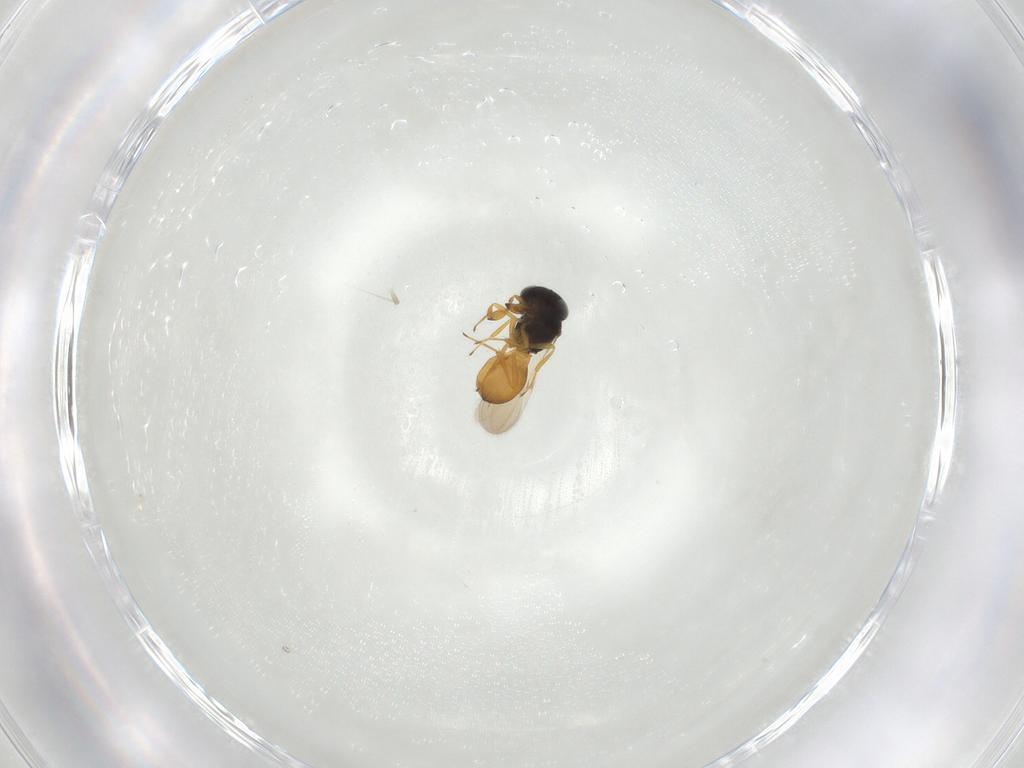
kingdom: Animalia
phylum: Arthropoda
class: Insecta
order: Hymenoptera
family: Scelionidae
